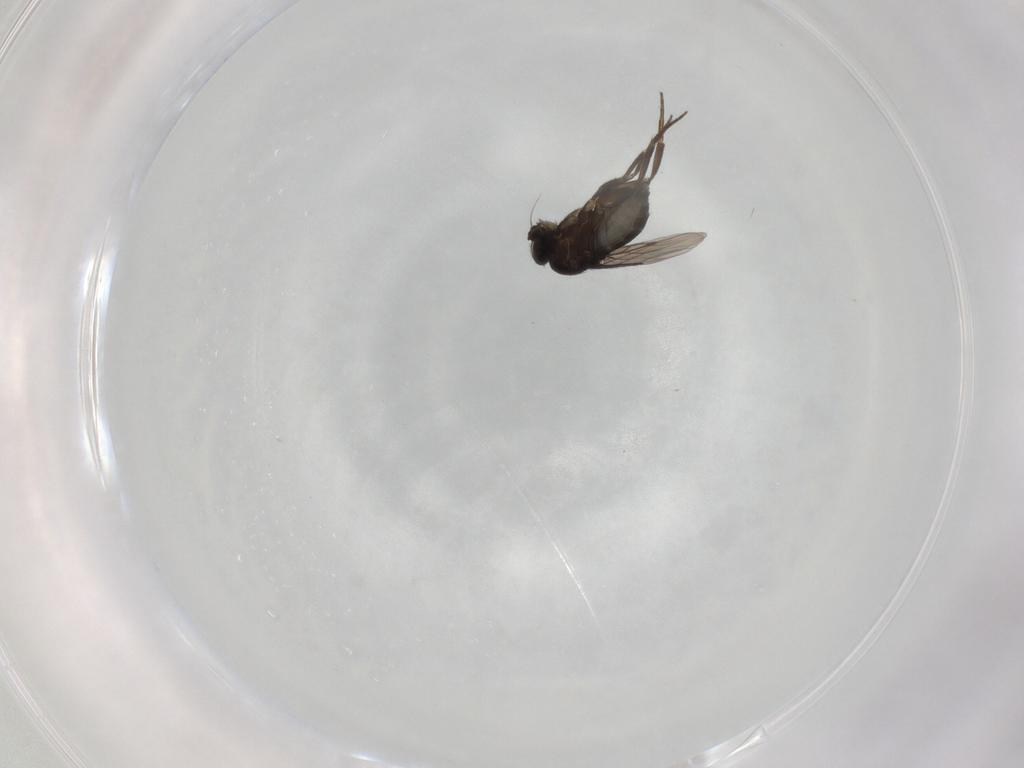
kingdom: Animalia
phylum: Arthropoda
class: Insecta
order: Diptera
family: Phoridae
